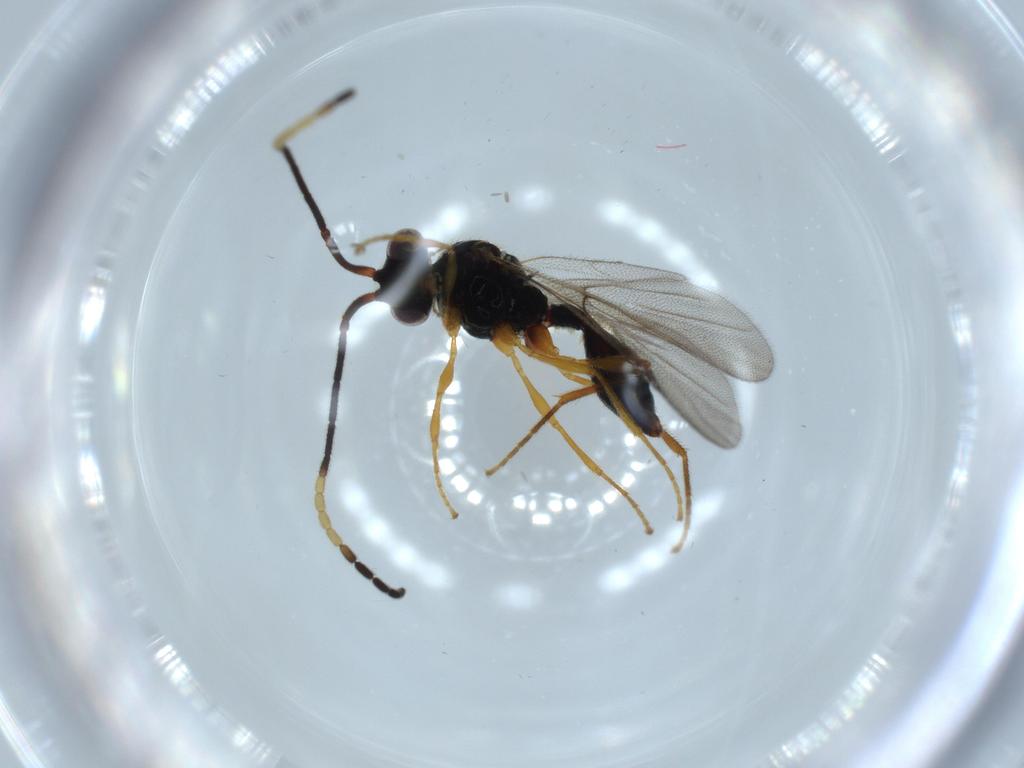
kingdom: Animalia
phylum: Arthropoda
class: Insecta
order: Hymenoptera
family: Diapriidae
